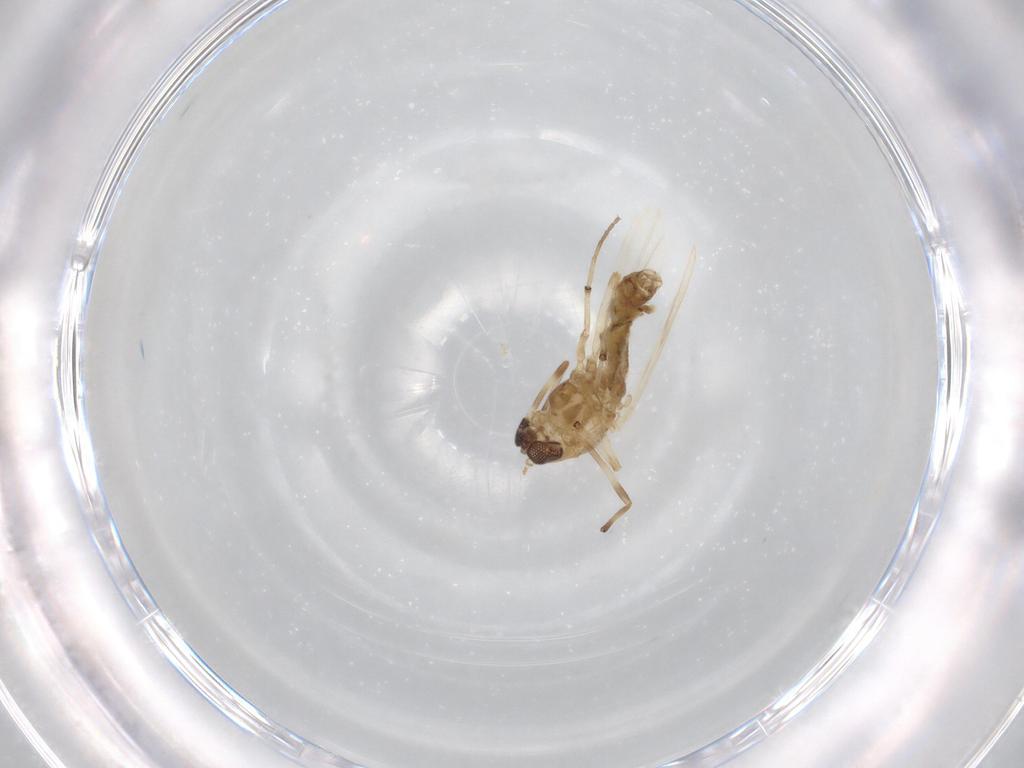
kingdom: Animalia
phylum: Arthropoda
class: Insecta
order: Diptera
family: Chironomidae
